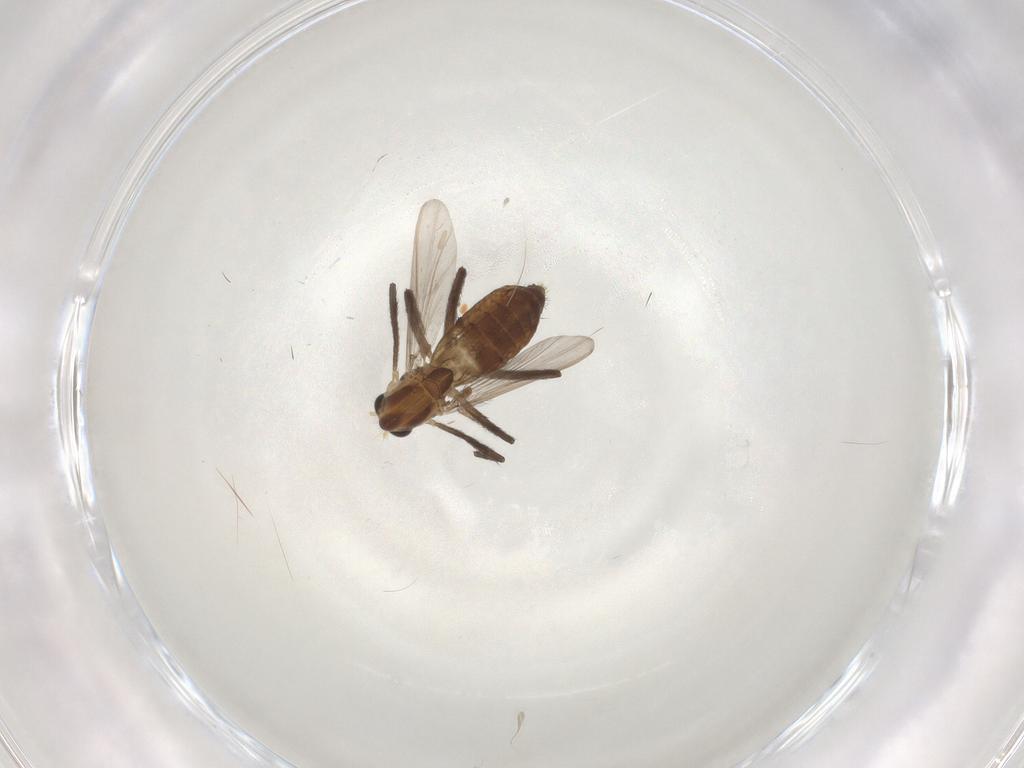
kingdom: Animalia
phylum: Arthropoda
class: Insecta
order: Diptera
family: Chironomidae
